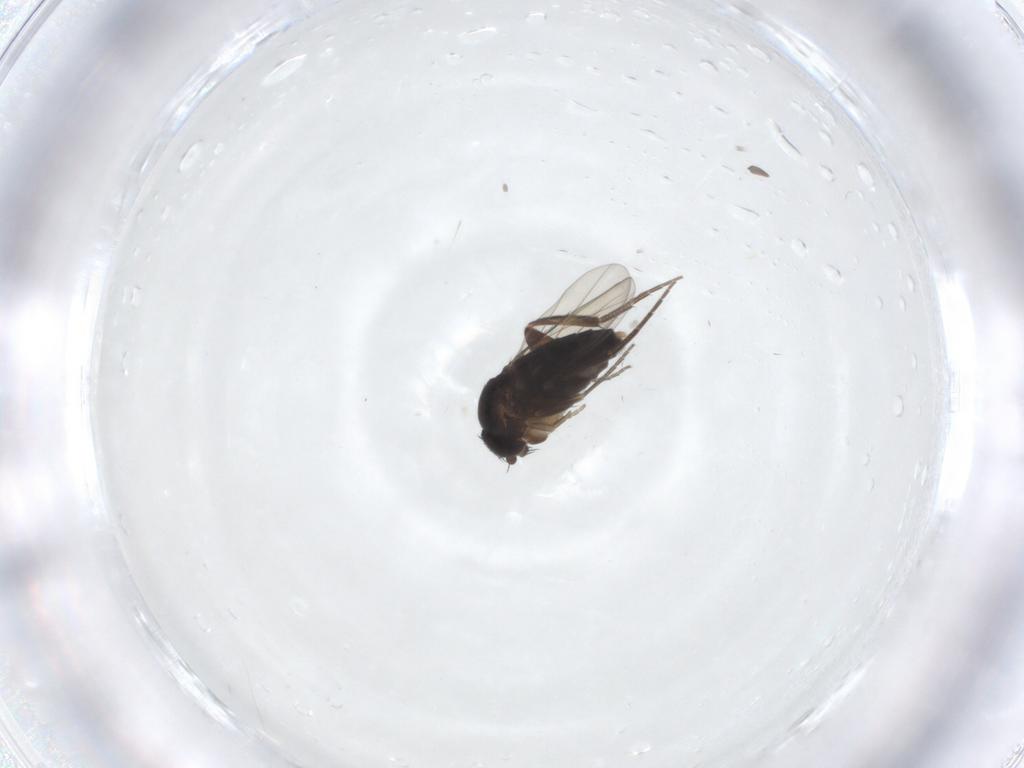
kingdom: Animalia
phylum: Arthropoda
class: Insecta
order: Diptera
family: Phoridae
